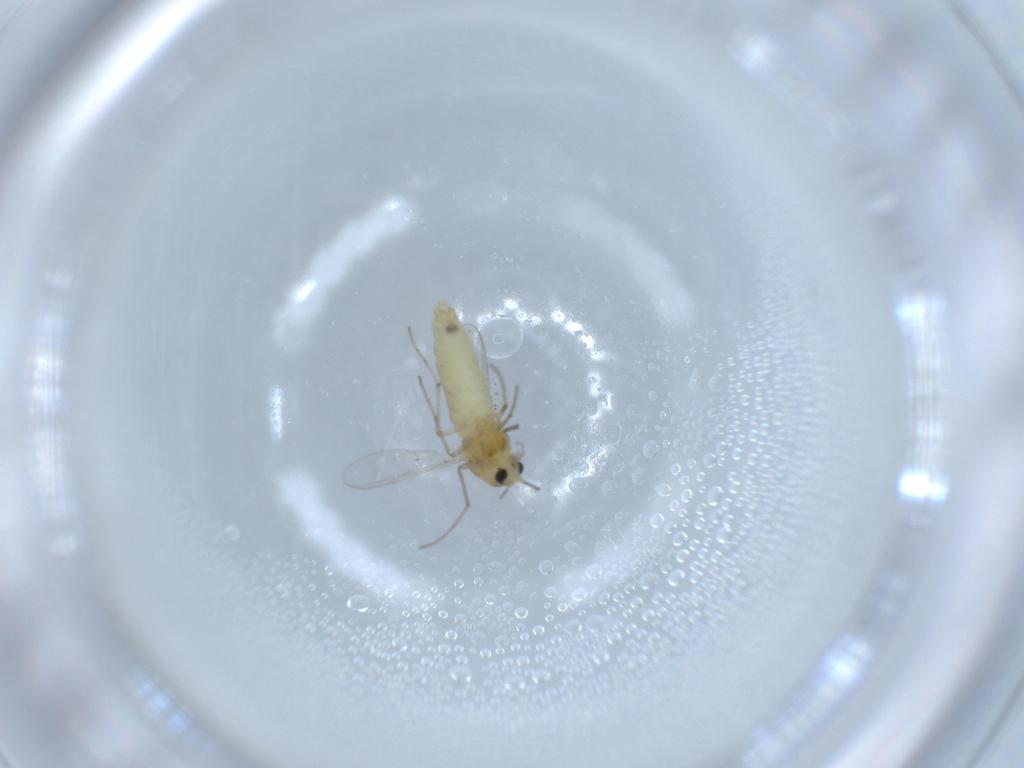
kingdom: Animalia
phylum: Arthropoda
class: Insecta
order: Diptera
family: Chironomidae
